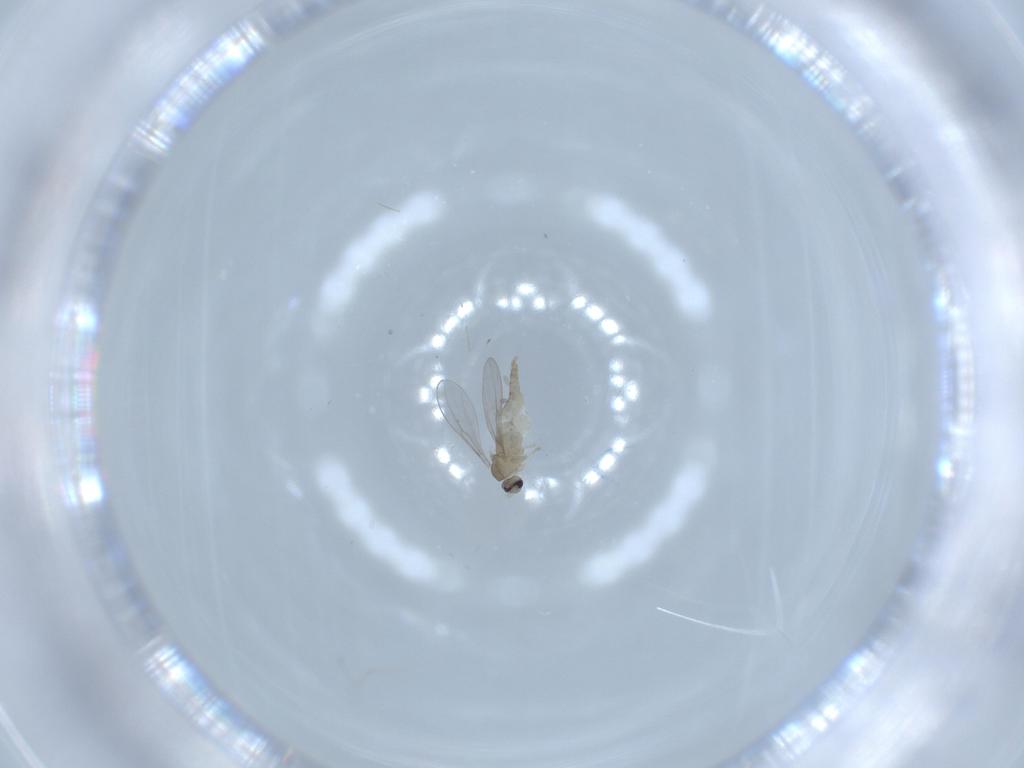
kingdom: Animalia
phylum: Arthropoda
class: Insecta
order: Diptera
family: Cecidomyiidae
